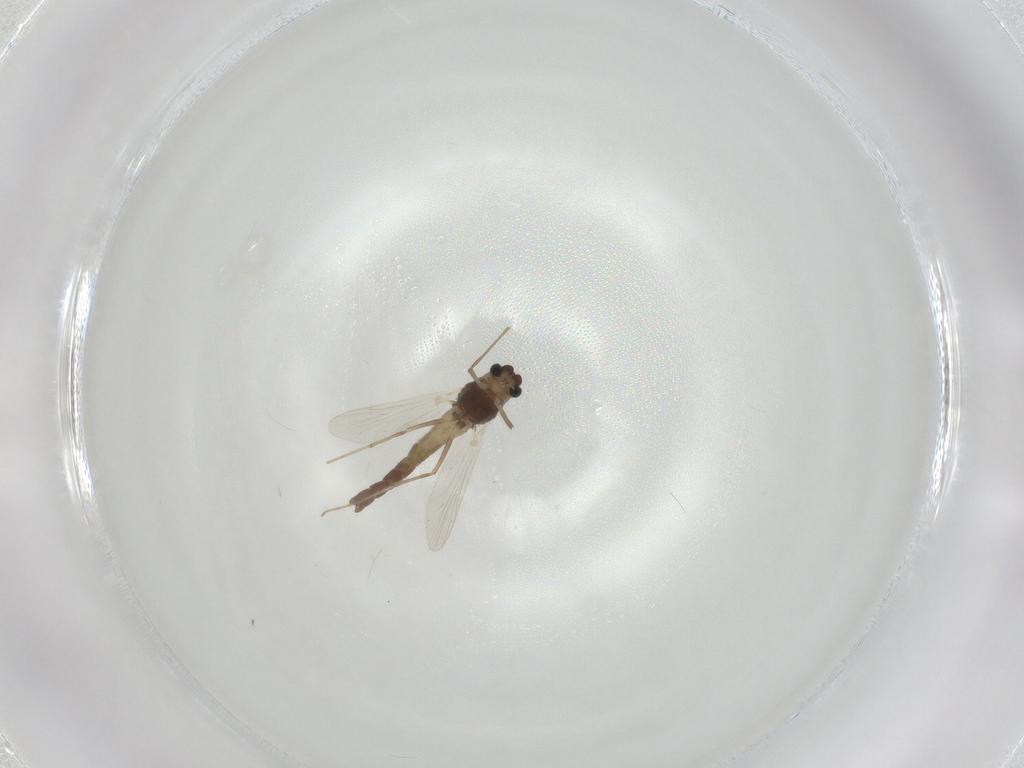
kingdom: Animalia
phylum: Arthropoda
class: Insecta
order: Diptera
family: Chironomidae
